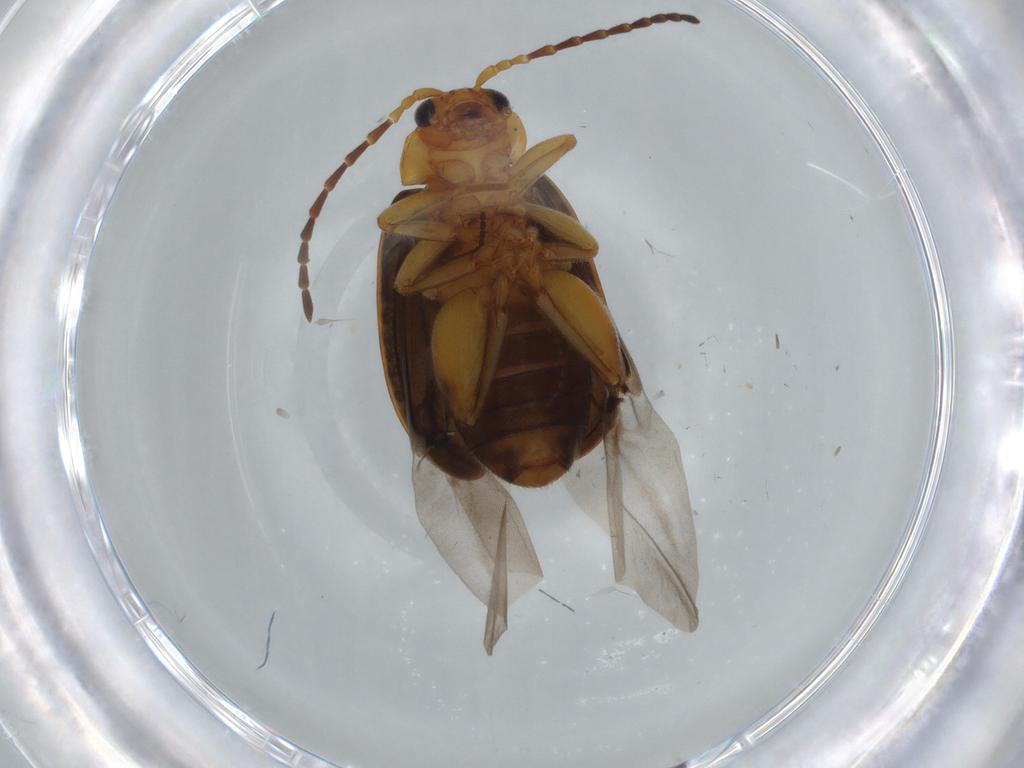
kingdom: Animalia
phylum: Arthropoda
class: Insecta
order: Coleoptera
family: Chrysomelidae
